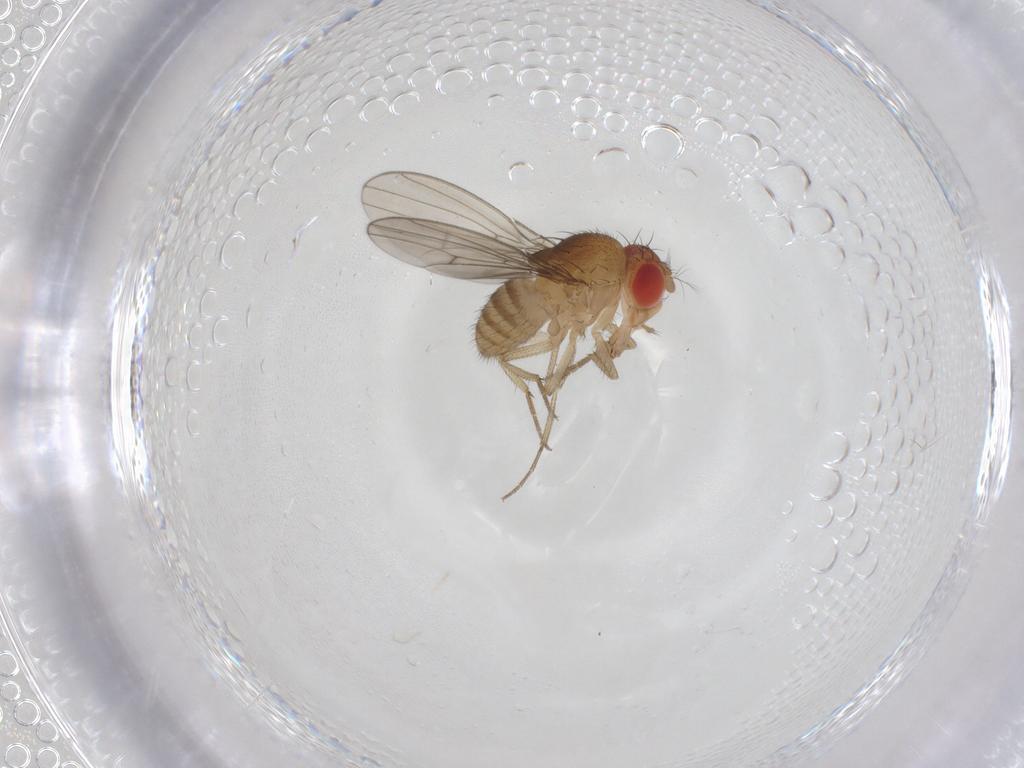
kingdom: Animalia
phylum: Arthropoda
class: Insecta
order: Diptera
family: Drosophilidae
